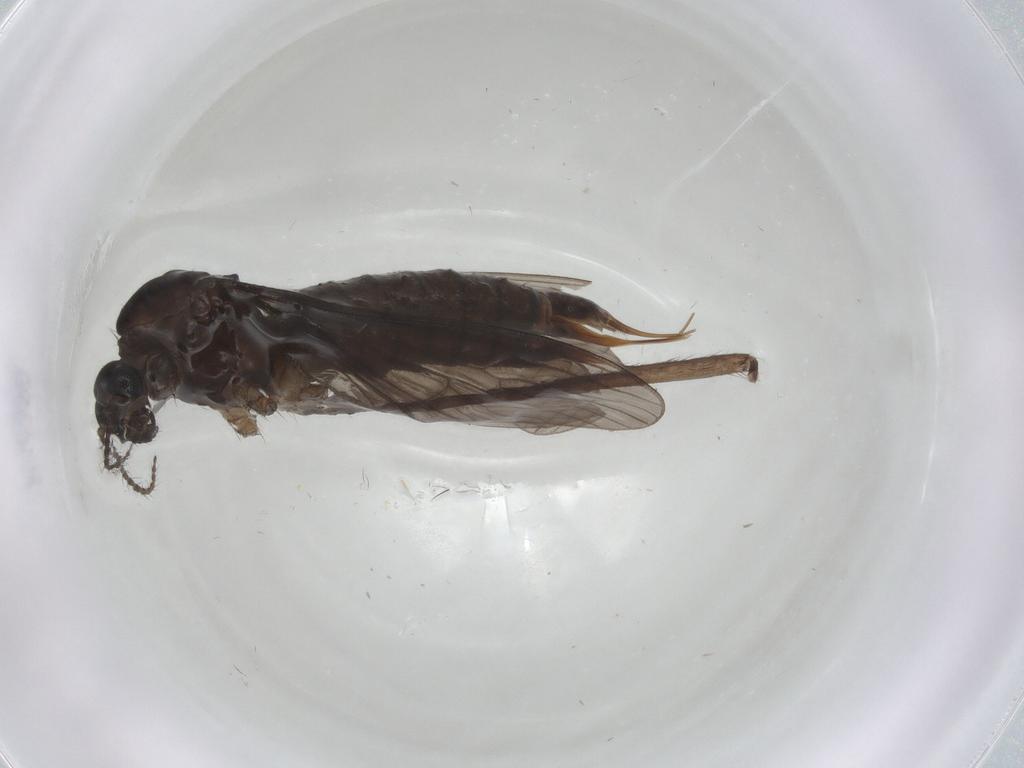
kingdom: Animalia
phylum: Arthropoda
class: Insecta
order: Diptera
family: Limoniidae
